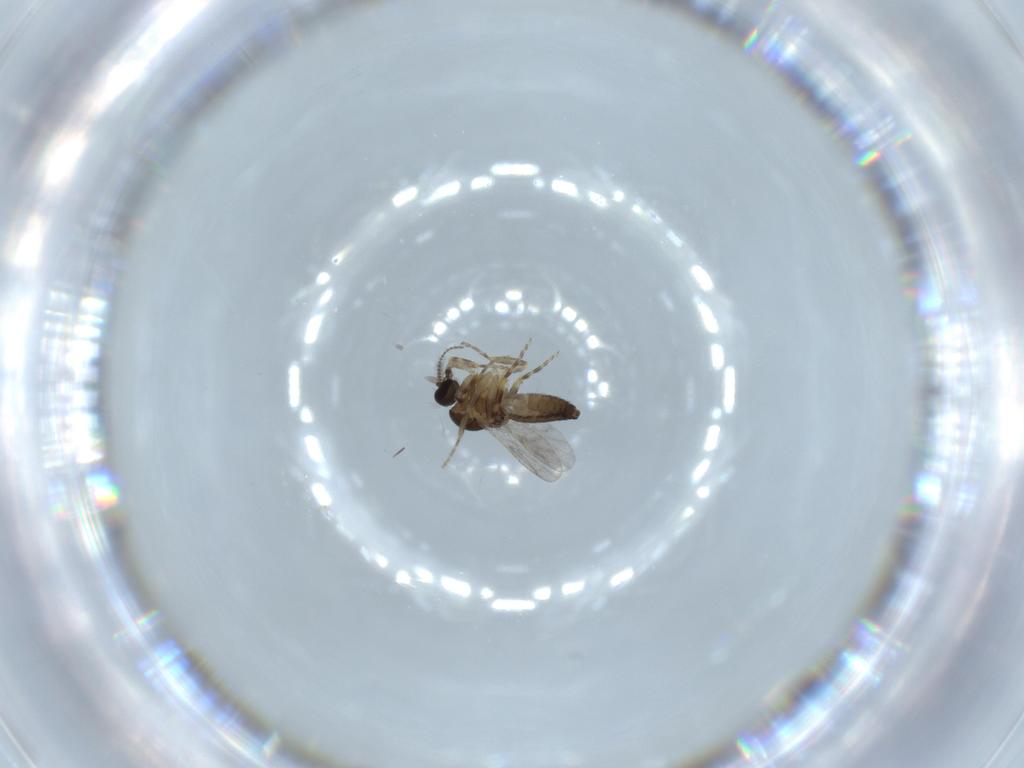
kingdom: Animalia
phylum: Arthropoda
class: Insecta
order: Diptera
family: Ceratopogonidae
